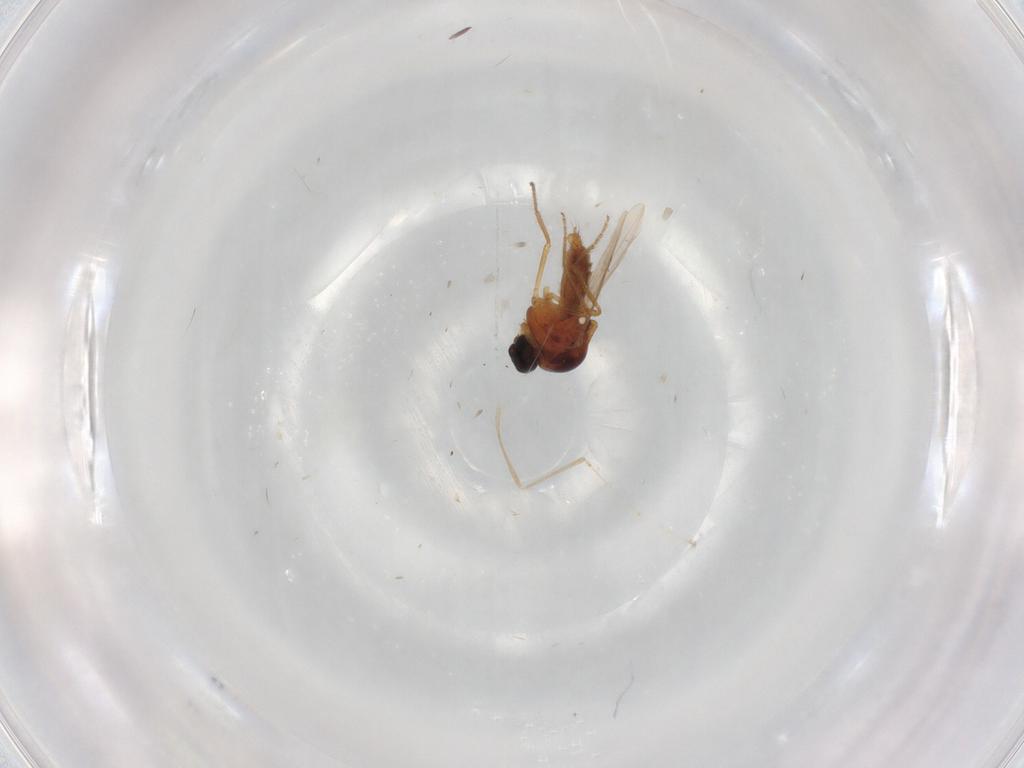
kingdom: Animalia
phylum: Arthropoda
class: Insecta
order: Diptera
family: Cecidomyiidae
